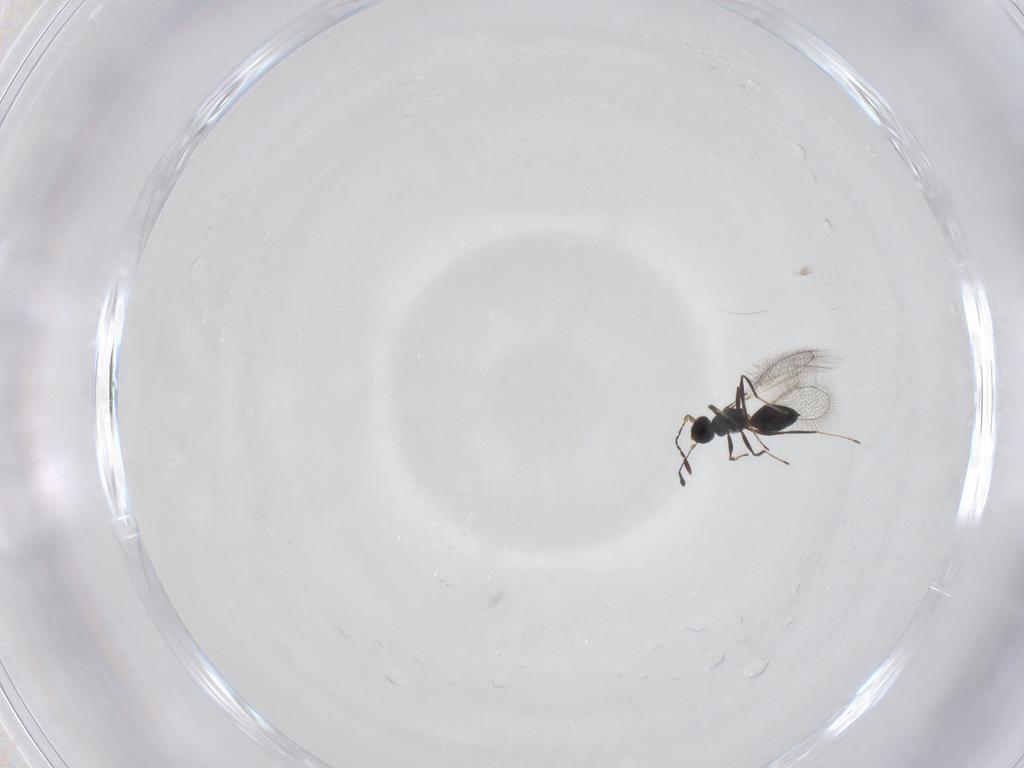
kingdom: Animalia
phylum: Arthropoda
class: Insecta
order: Hymenoptera
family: Mymaridae
